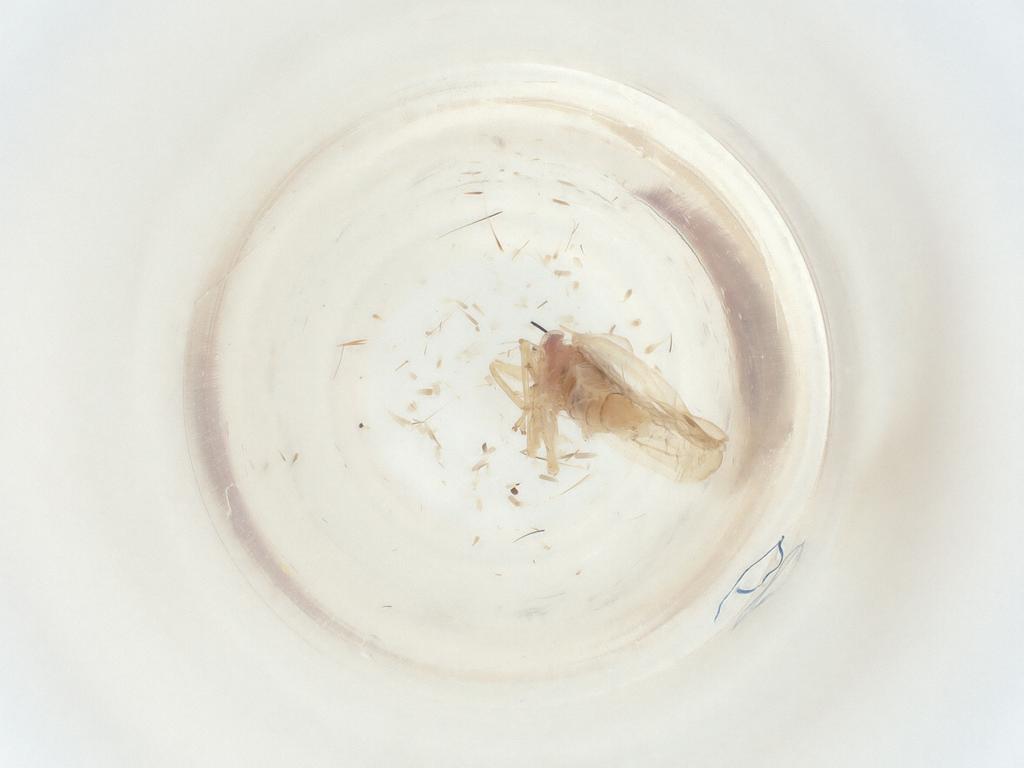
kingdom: Animalia
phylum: Arthropoda
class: Insecta
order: Hemiptera
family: Cicadellidae
